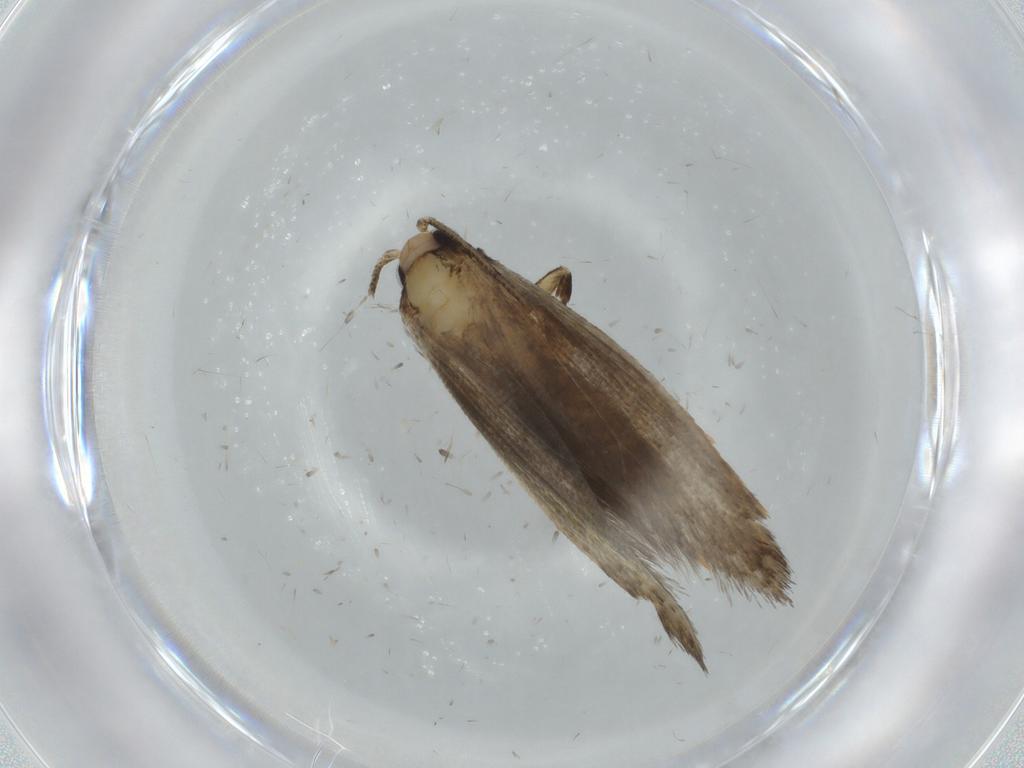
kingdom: Animalia
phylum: Arthropoda
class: Insecta
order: Lepidoptera
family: Tineidae
